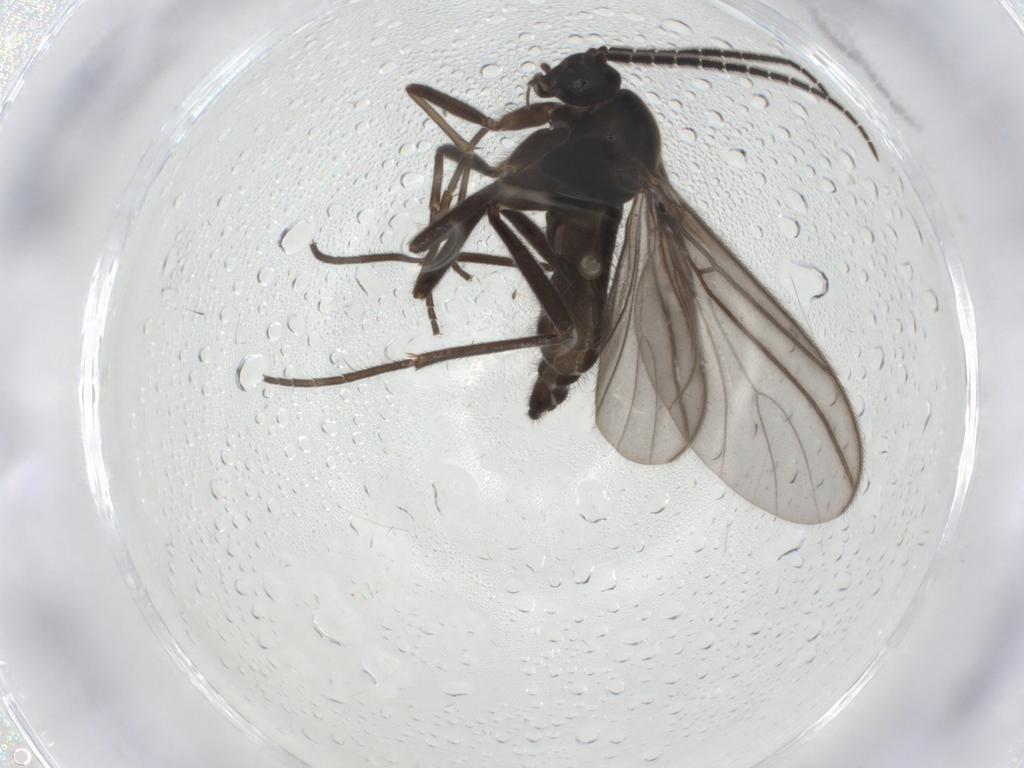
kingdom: Animalia
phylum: Arthropoda
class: Insecta
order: Diptera
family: Sciaridae
